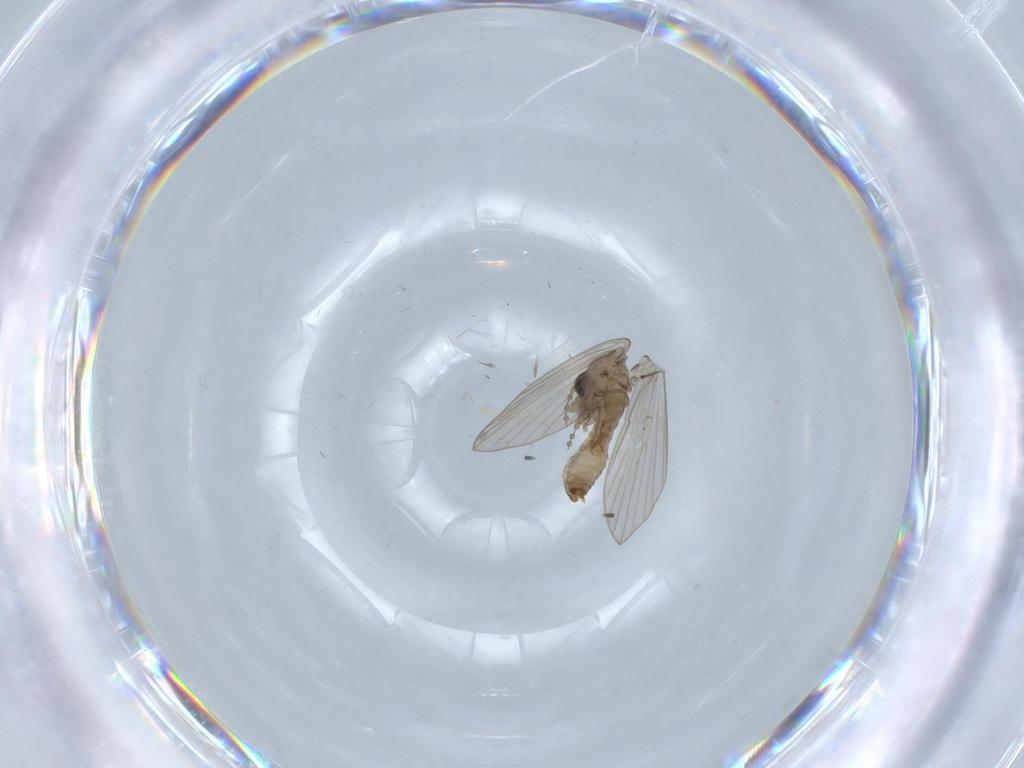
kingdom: Animalia
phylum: Arthropoda
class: Insecta
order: Diptera
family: Psychodidae
